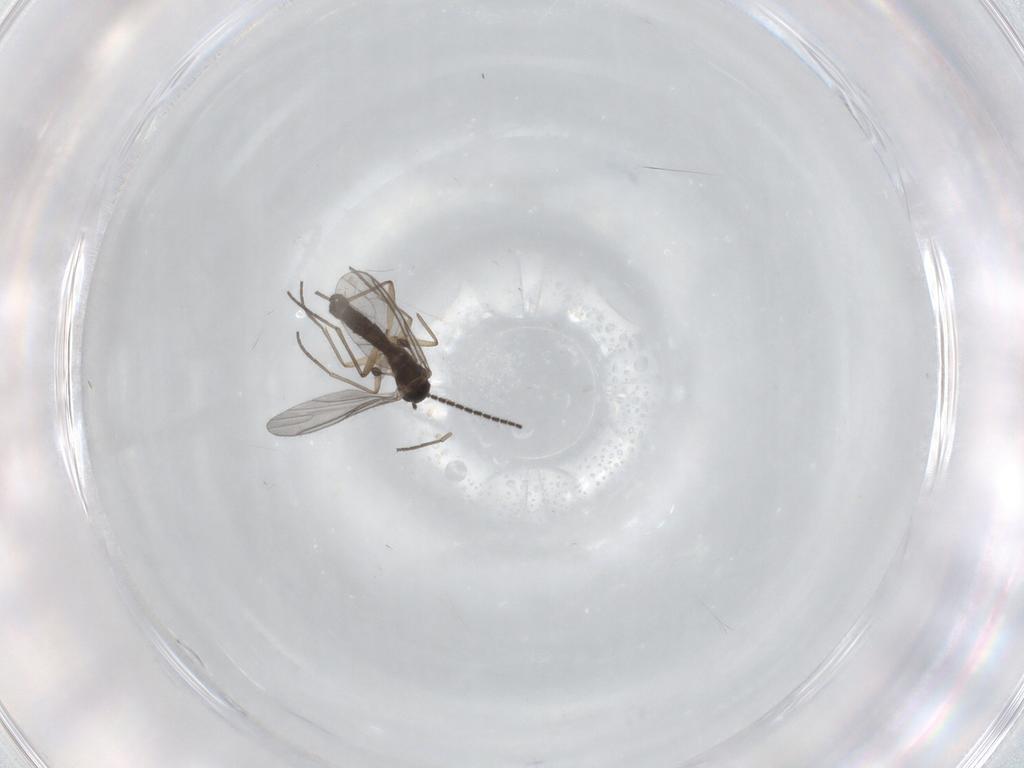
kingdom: Animalia
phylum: Arthropoda
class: Insecta
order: Diptera
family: Sciaridae
